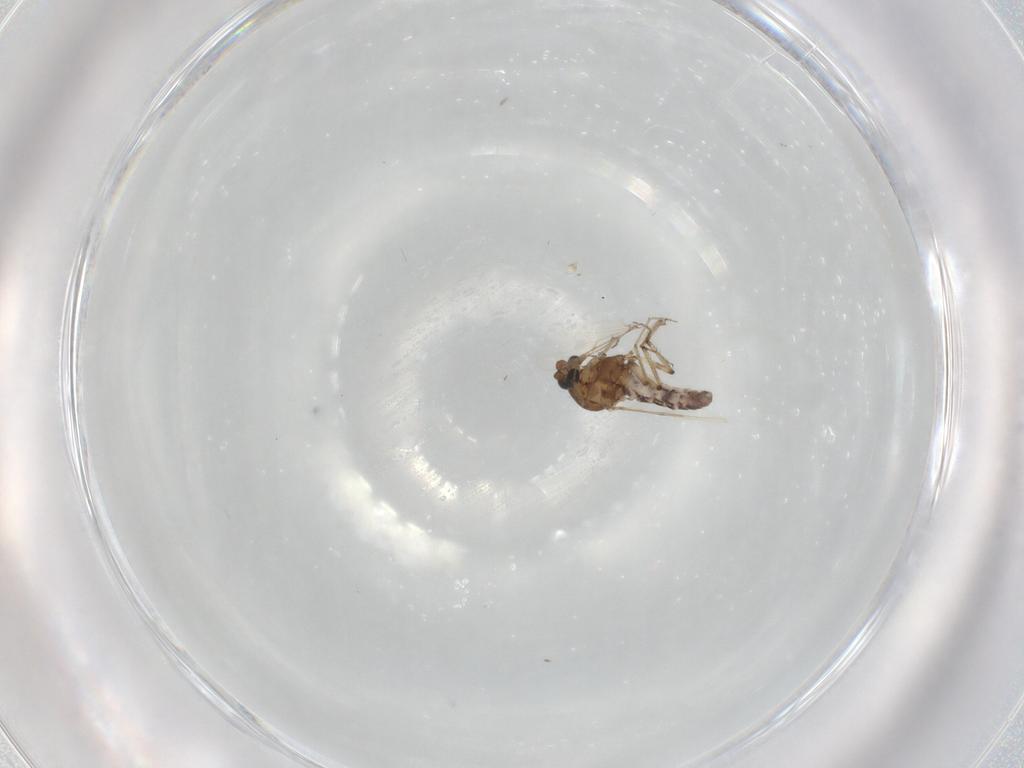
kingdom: Animalia
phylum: Arthropoda
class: Insecta
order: Diptera
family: Ceratopogonidae
